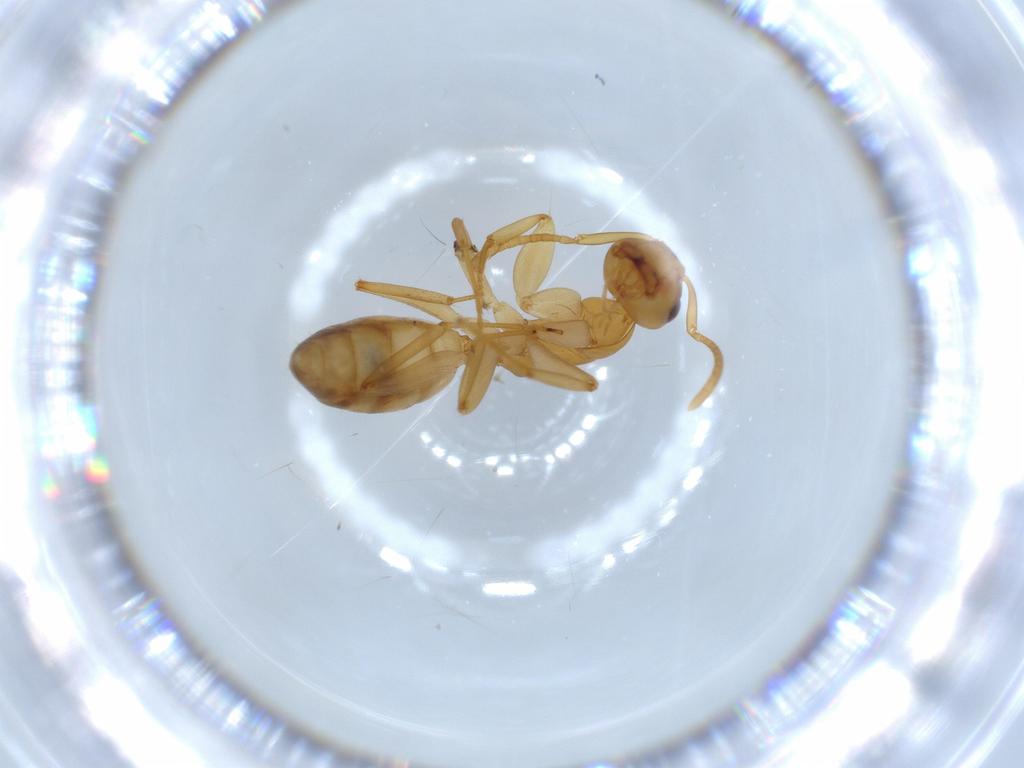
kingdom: Animalia
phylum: Arthropoda
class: Insecta
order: Hymenoptera
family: Formicidae
